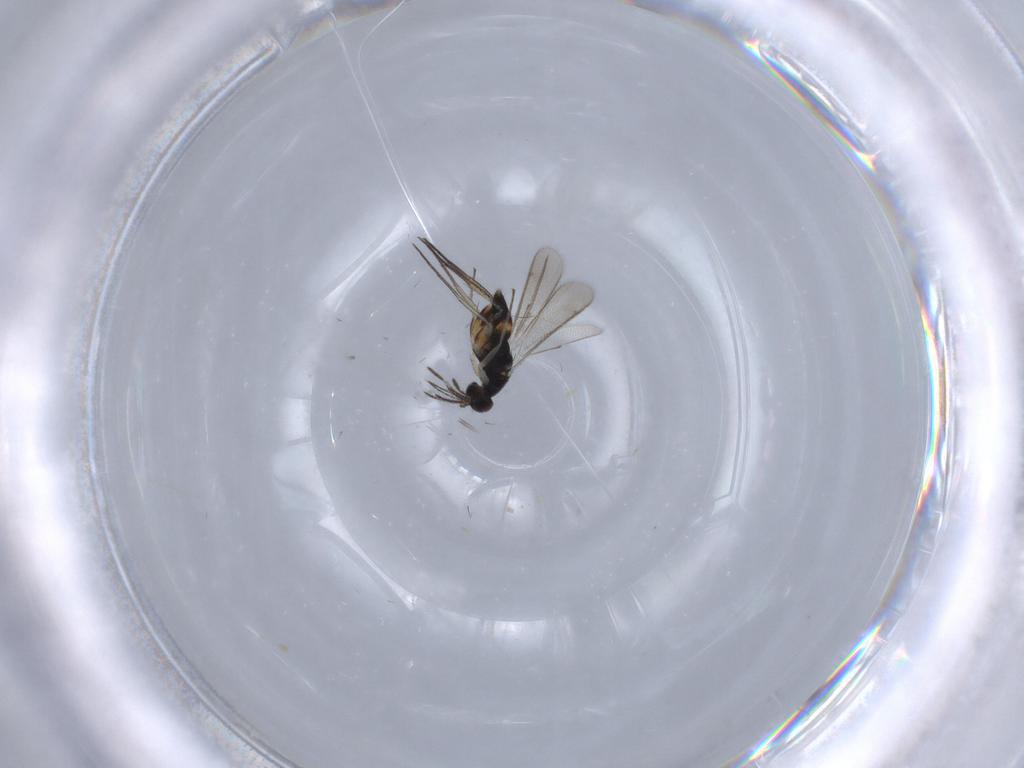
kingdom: Animalia
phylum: Arthropoda
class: Insecta
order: Hymenoptera
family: Eulophidae
